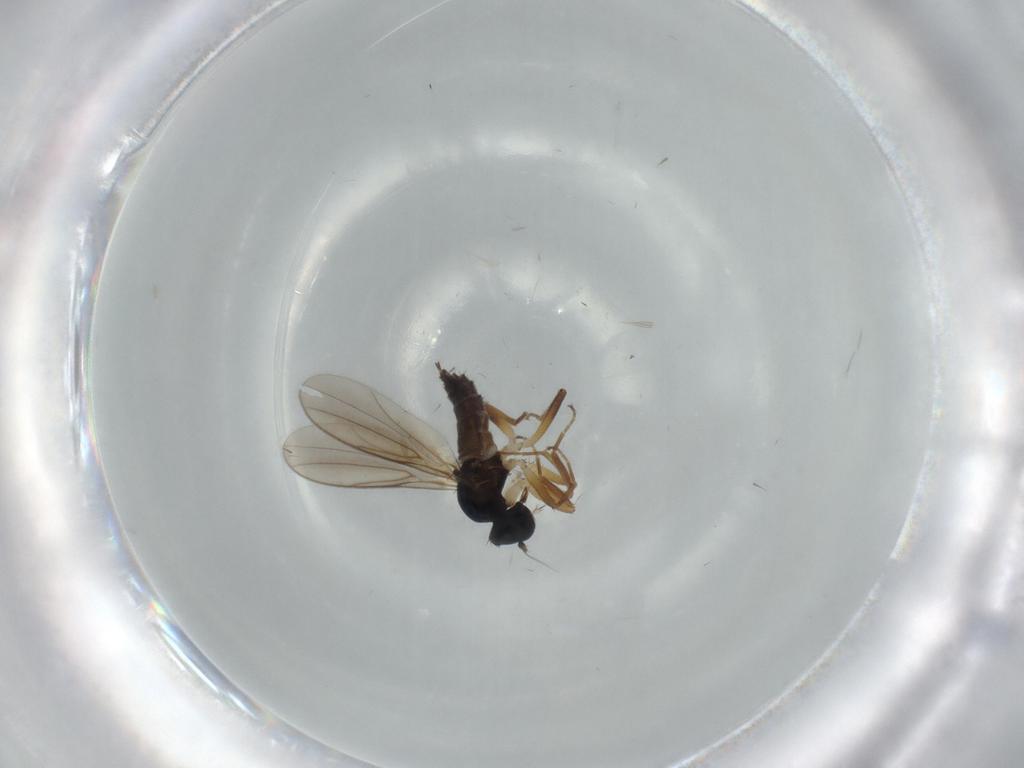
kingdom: Animalia
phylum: Arthropoda
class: Insecta
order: Diptera
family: Hybotidae
